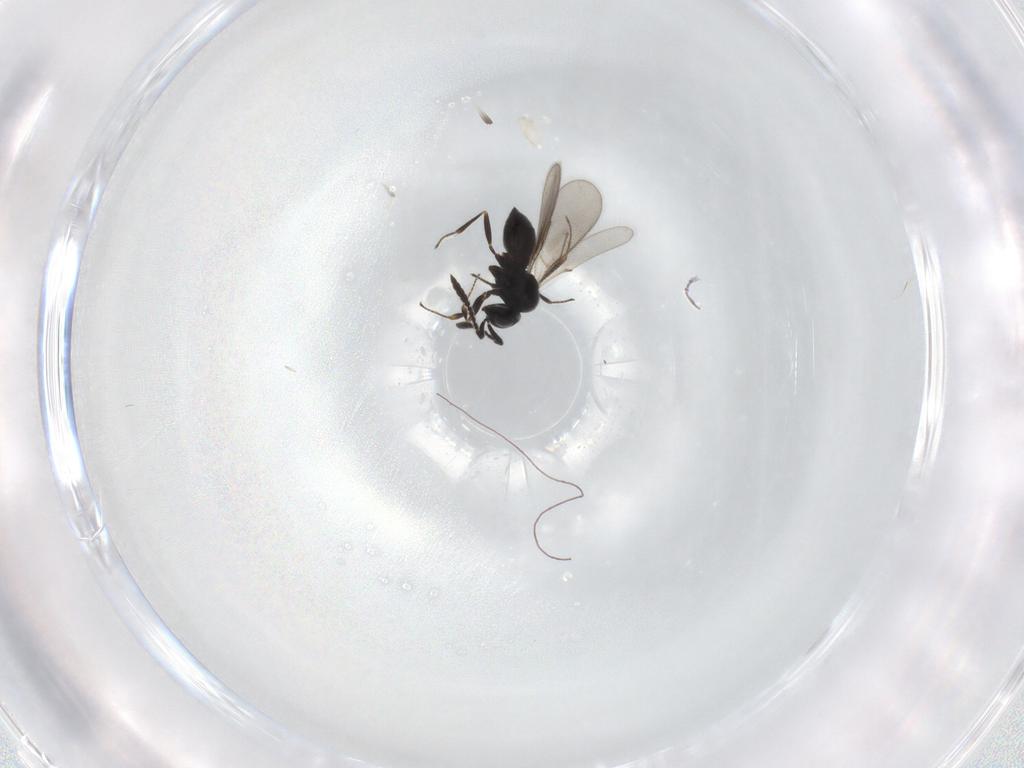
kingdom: Animalia
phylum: Arthropoda
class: Insecta
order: Hymenoptera
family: Scelionidae
